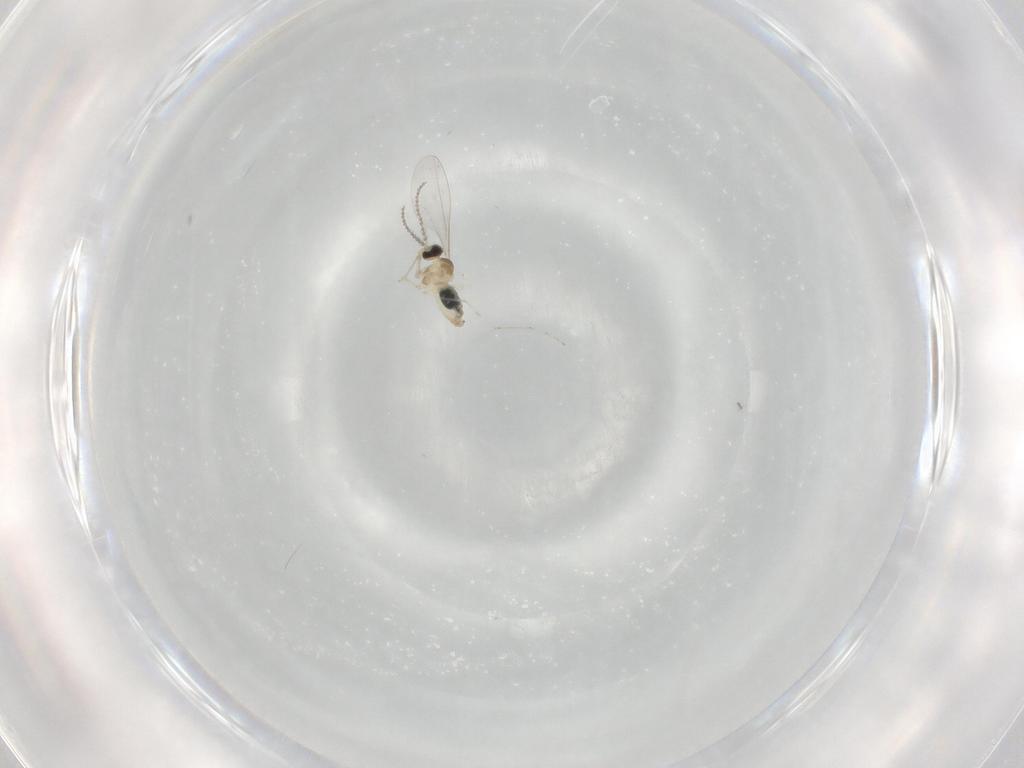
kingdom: Animalia
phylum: Arthropoda
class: Insecta
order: Diptera
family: Cecidomyiidae
